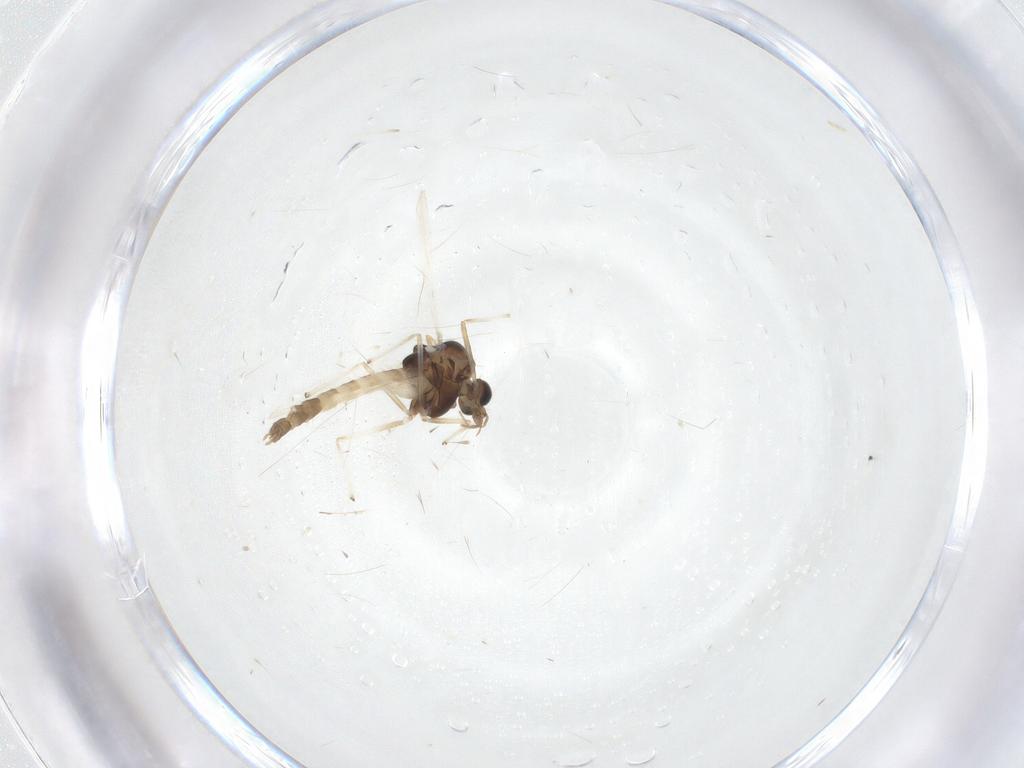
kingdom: Animalia
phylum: Arthropoda
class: Insecta
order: Diptera
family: Chironomidae
